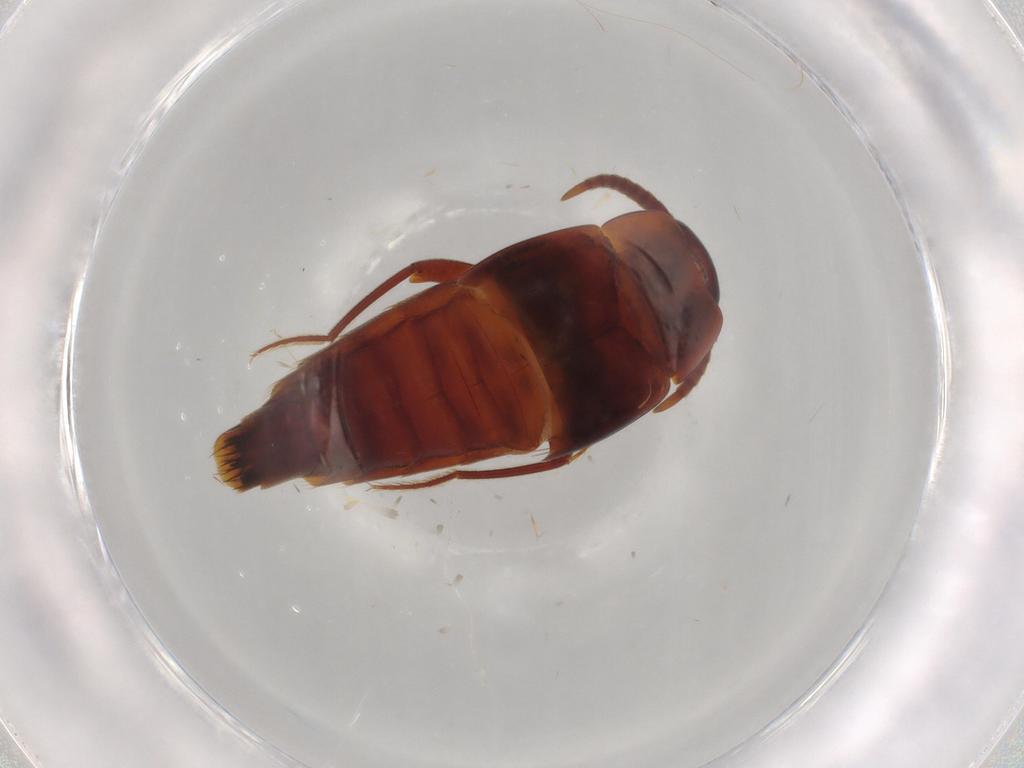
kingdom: Animalia
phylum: Arthropoda
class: Insecta
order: Coleoptera
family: Staphylinidae
